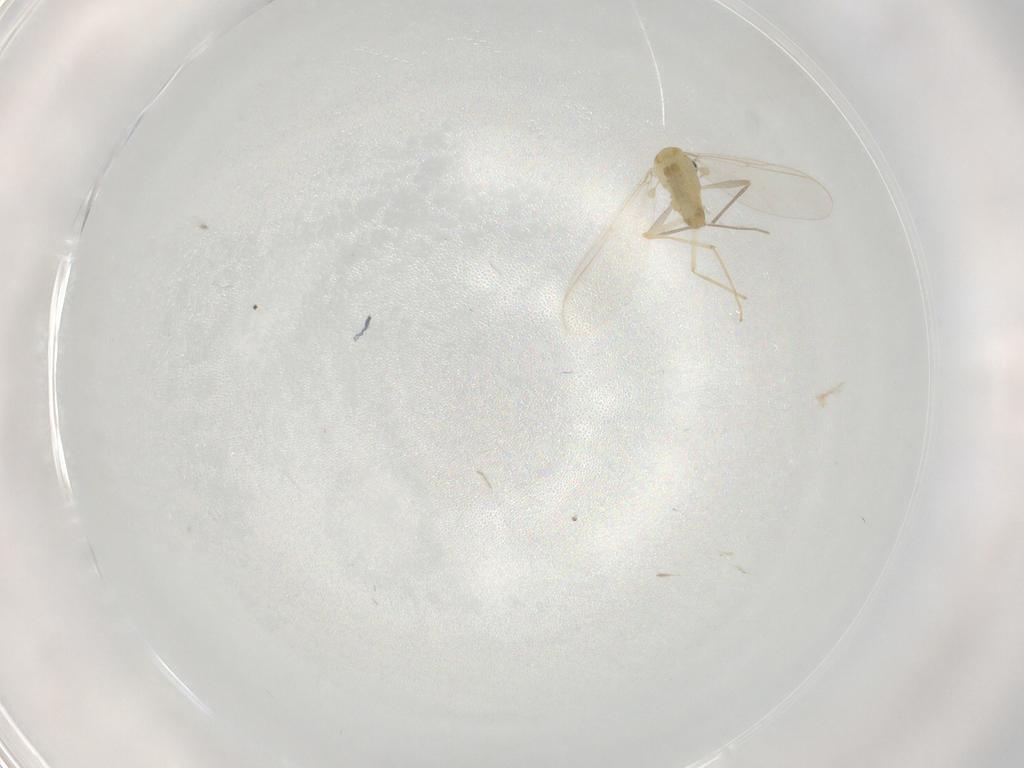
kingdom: Animalia
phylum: Arthropoda
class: Insecta
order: Diptera
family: Chironomidae
